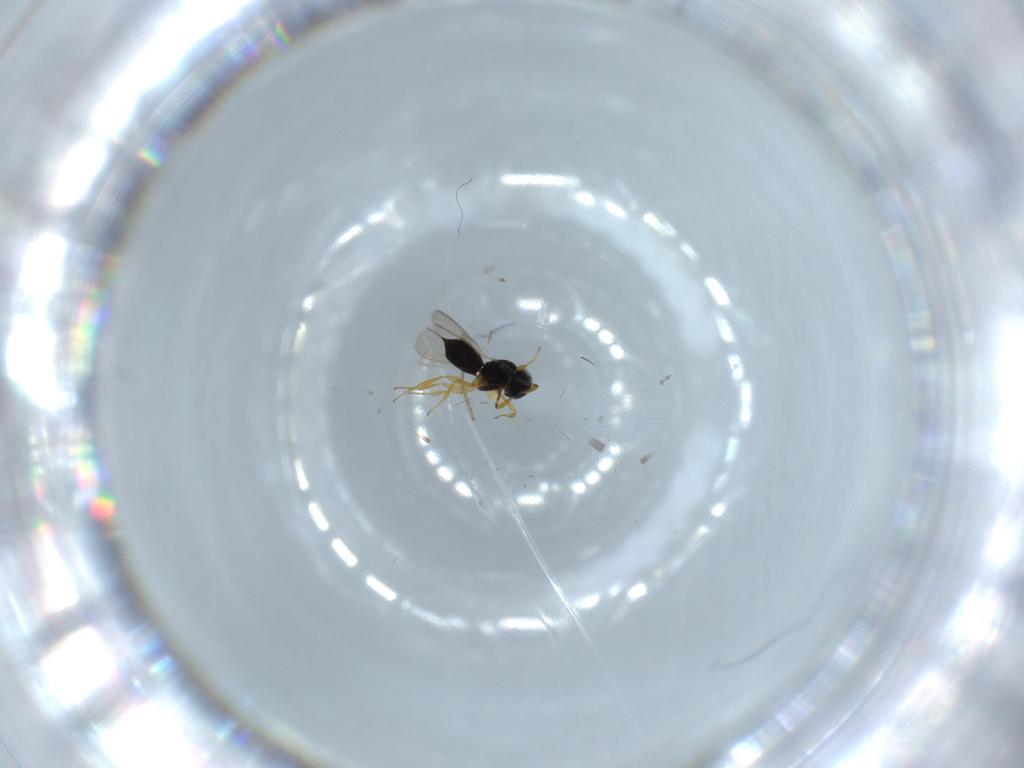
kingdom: Animalia
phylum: Arthropoda
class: Insecta
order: Hymenoptera
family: Scelionidae
